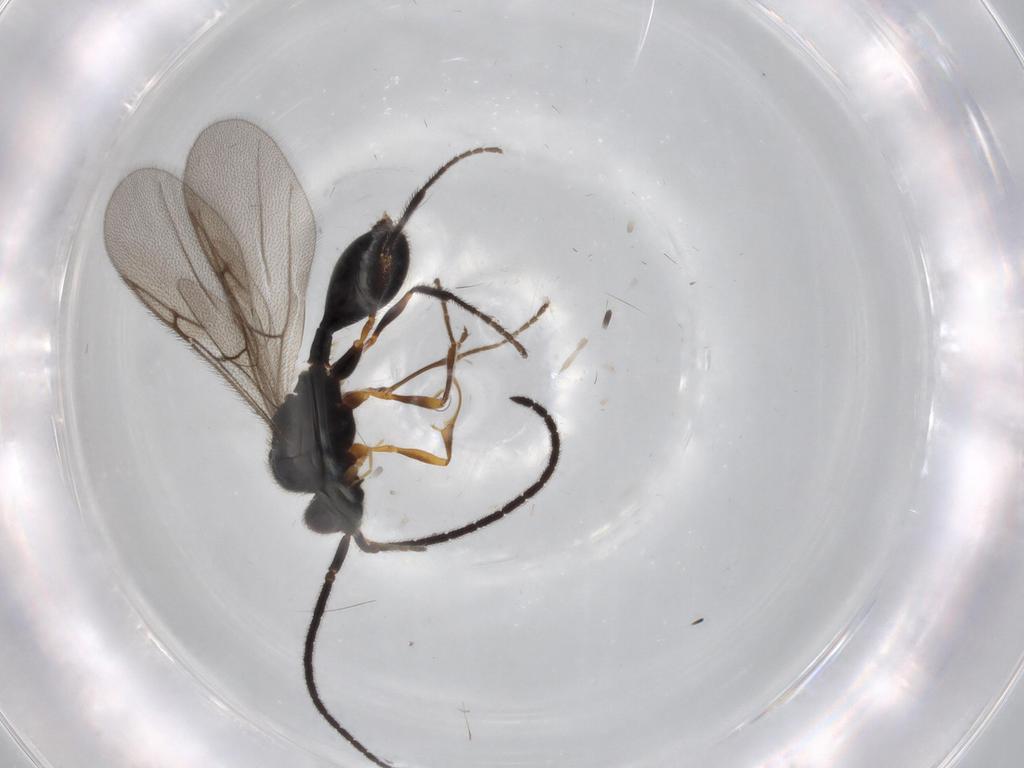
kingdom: Animalia
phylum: Arthropoda
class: Insecta
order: Hymenoptera
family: Diapriidae
